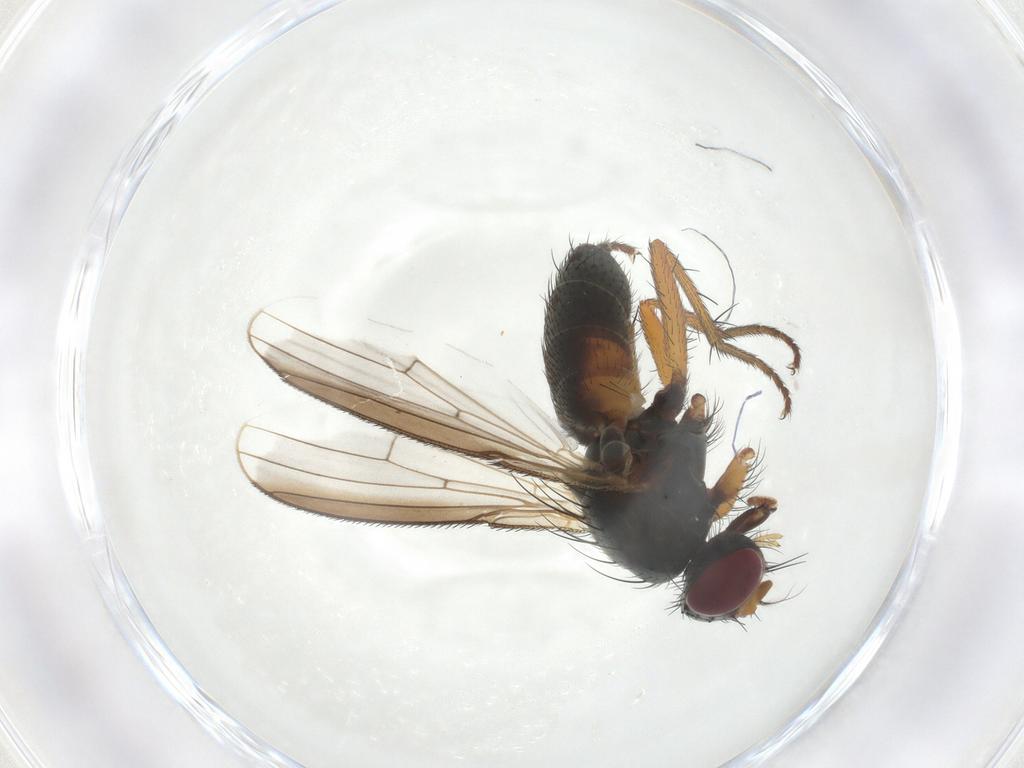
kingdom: Animalia
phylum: Arthropoda
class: Insecta
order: Diptera
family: Muscidae
